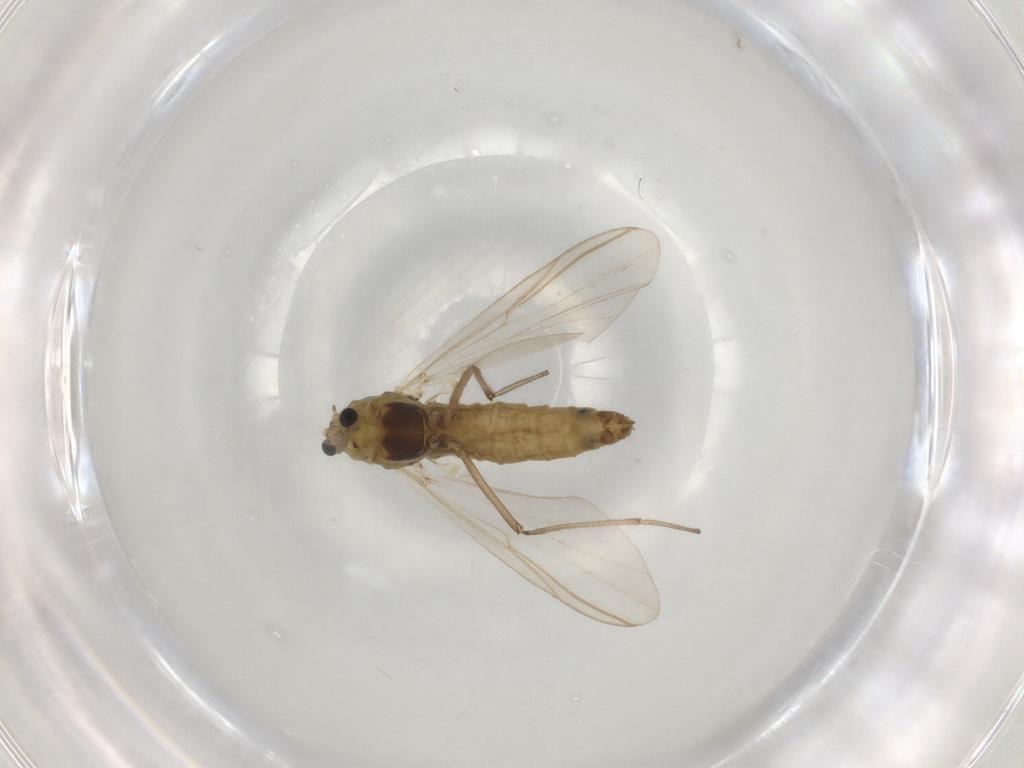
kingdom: Animalia
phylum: Arthropoda
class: Insecta
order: Diptera
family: Chironomidae
